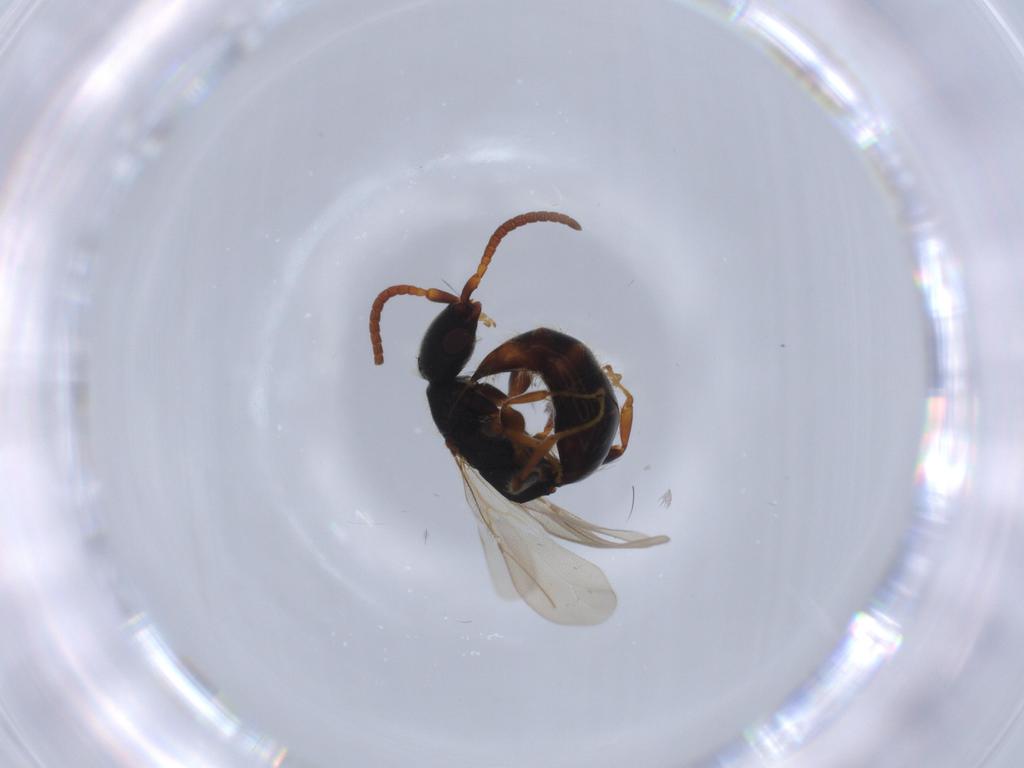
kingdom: Animalia
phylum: Arthropoda
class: Insecta
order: Hymenoptera
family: Bethylidae
